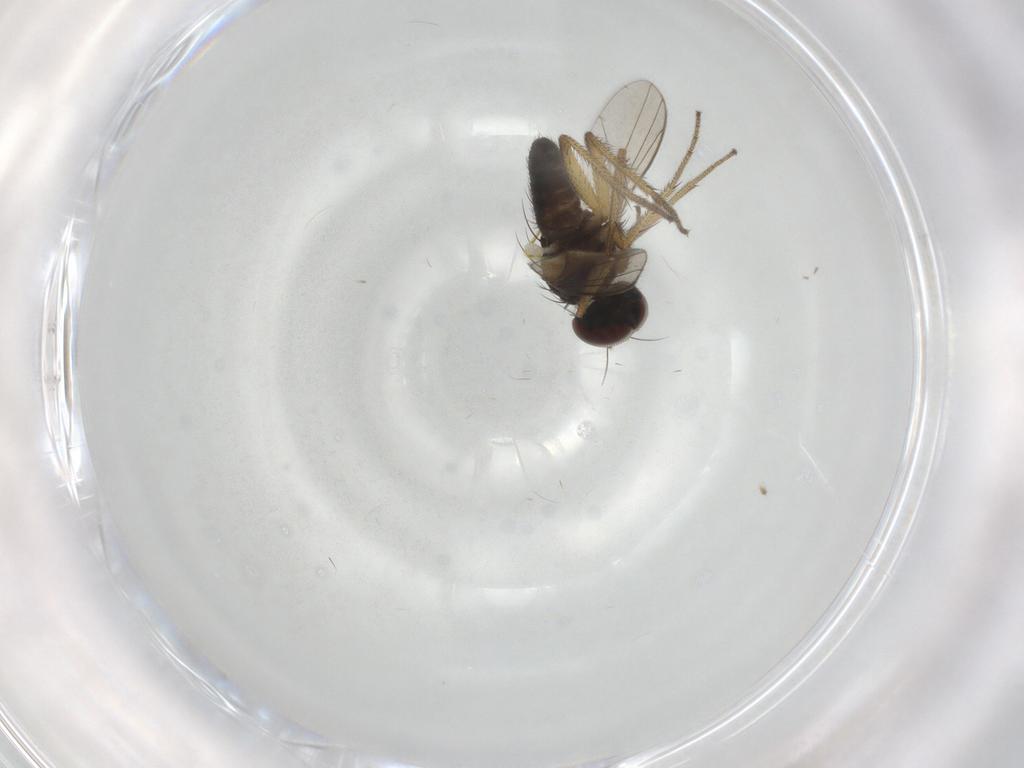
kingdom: Animalia
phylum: Arthropoda
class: Insecta
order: Diptera
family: Dolichopodidae
